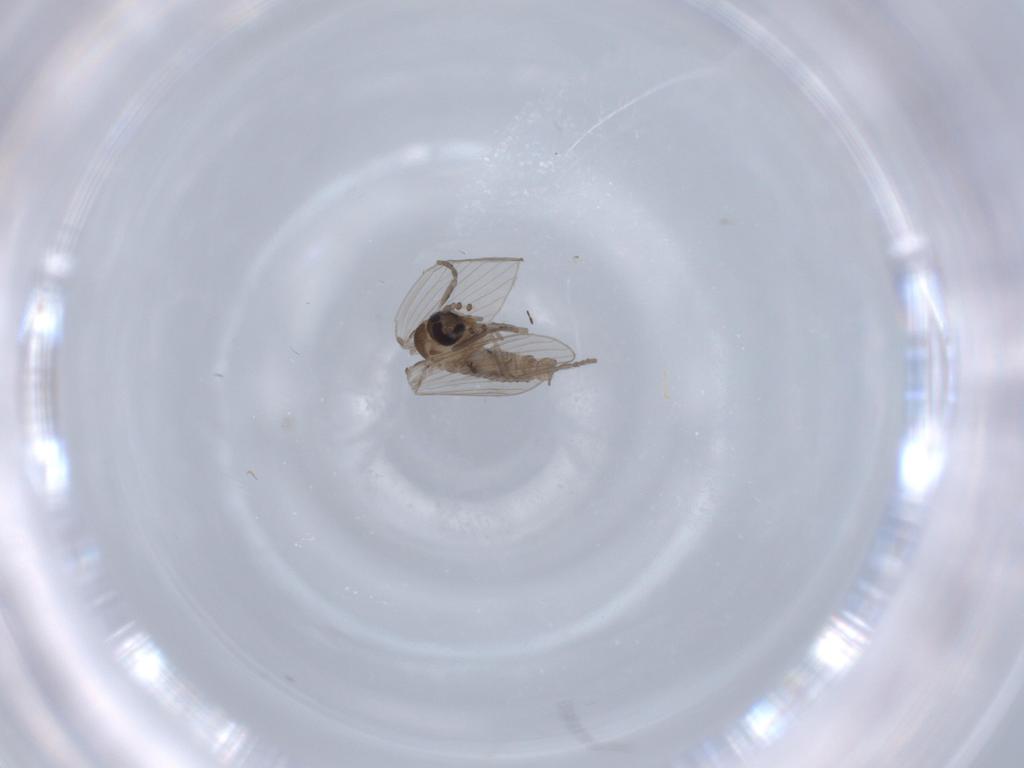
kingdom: Animalia
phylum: Arthropoda
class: Insecta
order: Diptera
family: Psychodidae
